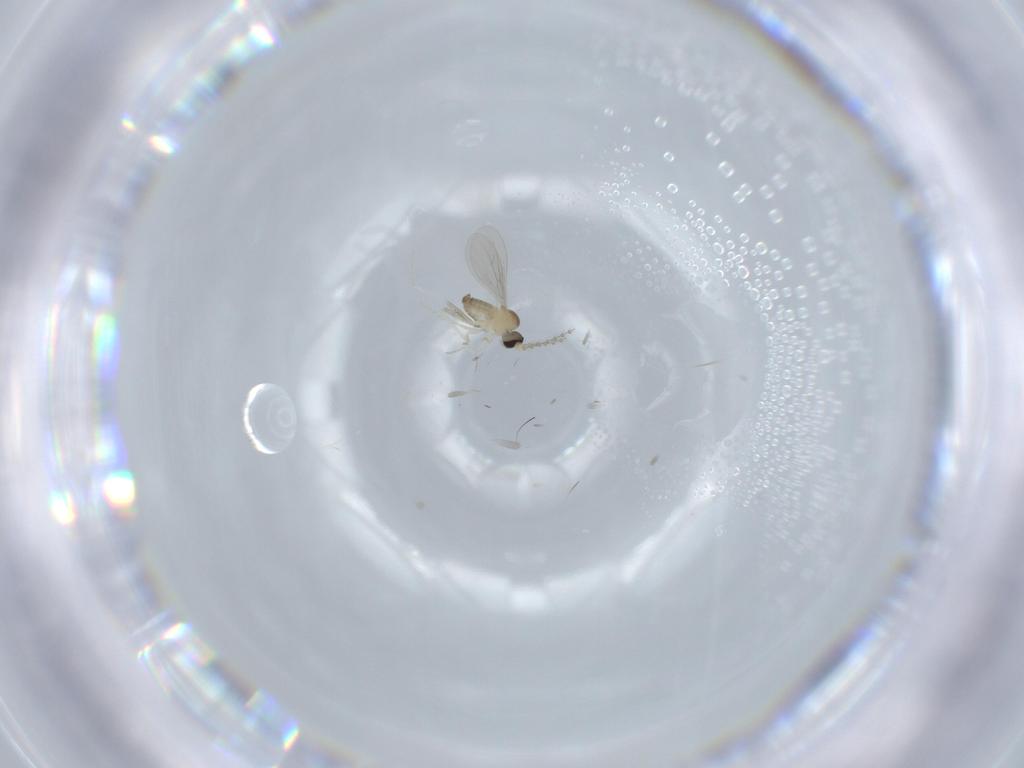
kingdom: Animalia
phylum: Arthropoda
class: Insecta
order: Diptera
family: Cecidomyiidae
